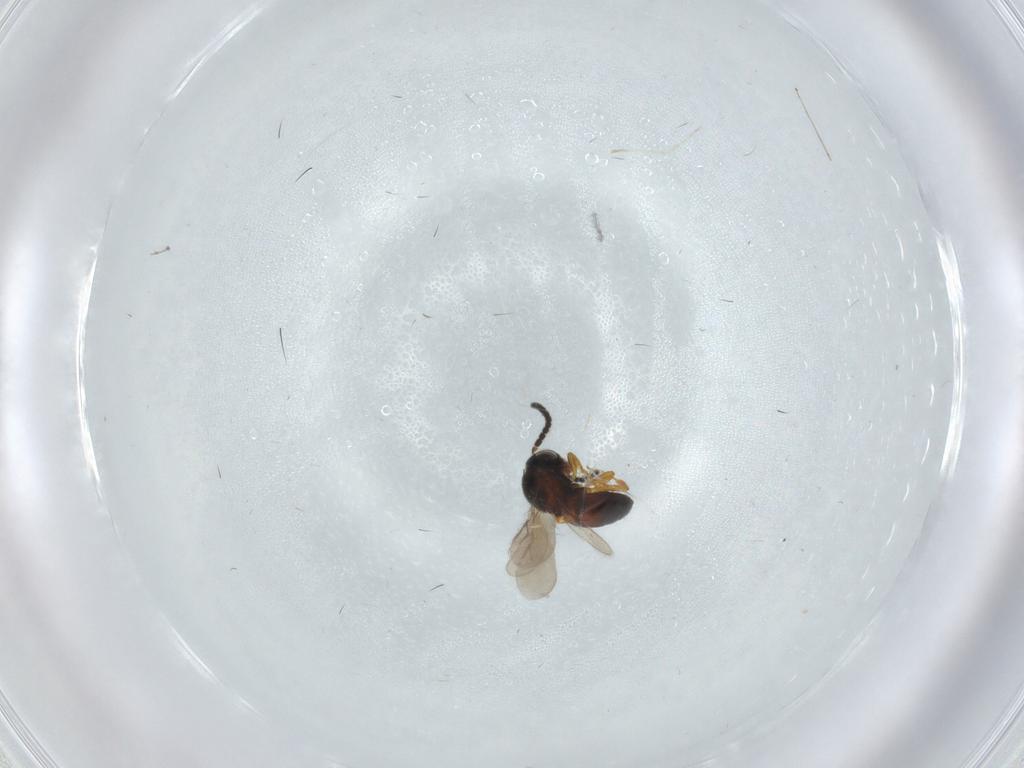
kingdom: Animalia
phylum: Arthropoda
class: Insecta
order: Hymenoptera
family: Scelionidae
